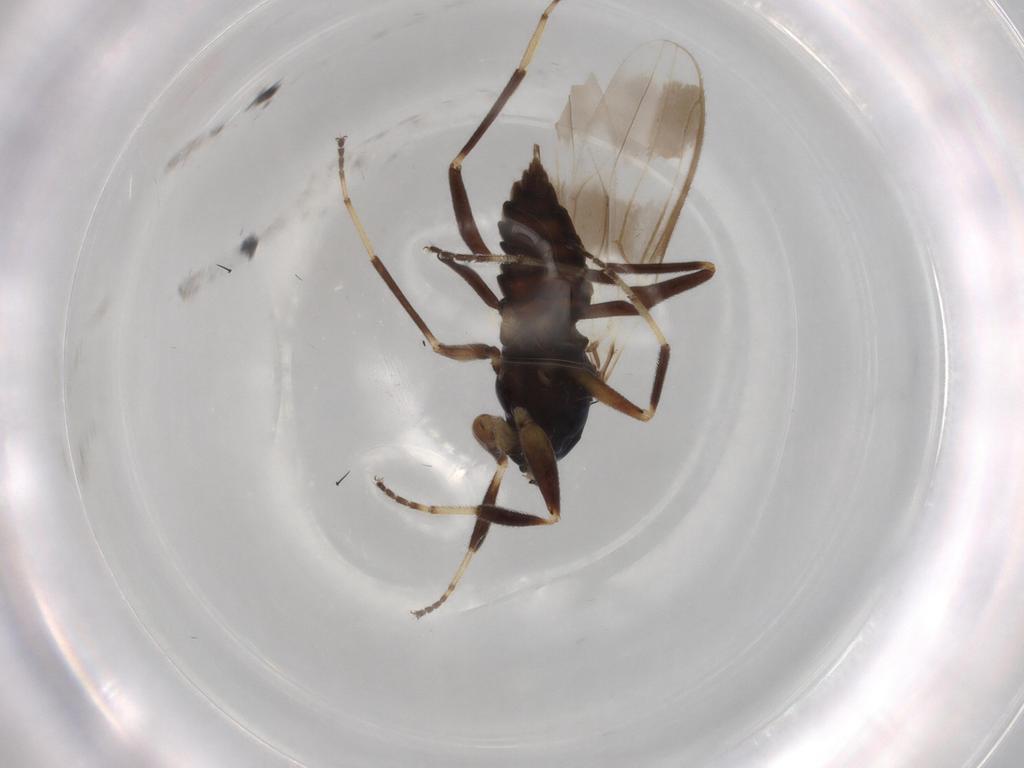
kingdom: Animalia
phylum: Arthropoda
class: Insecta
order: Diptera
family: Hybotidae
